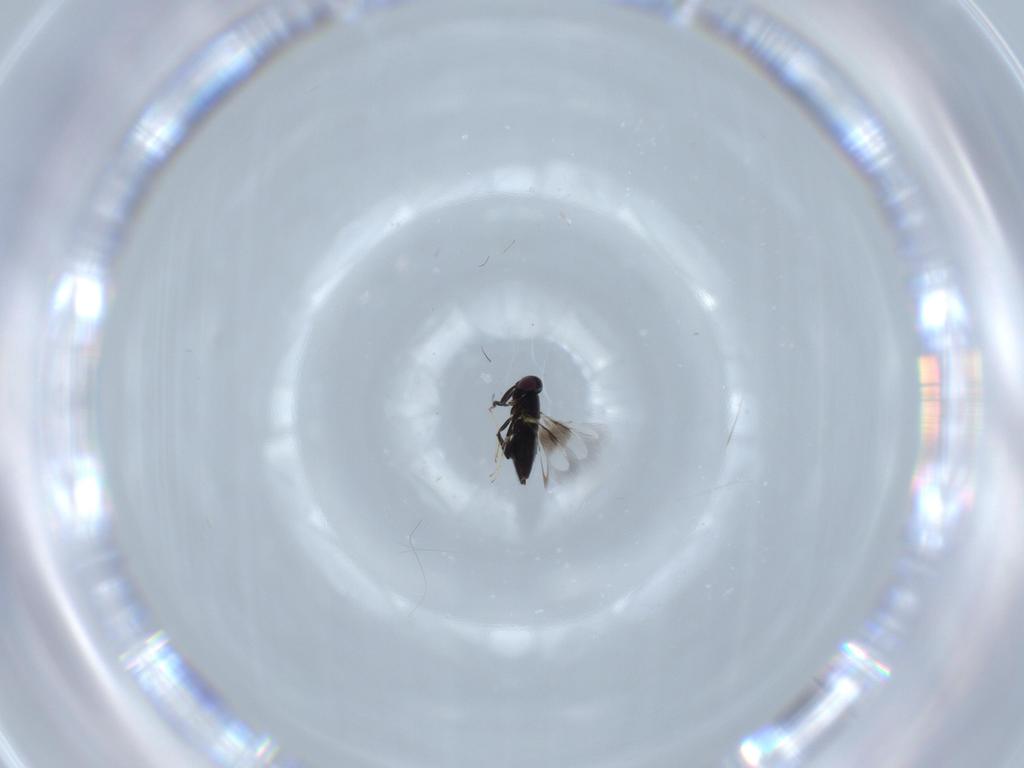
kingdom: Animalia
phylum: Arthropoda
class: Insecta
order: Hymenoptera
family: Signiphoridae
